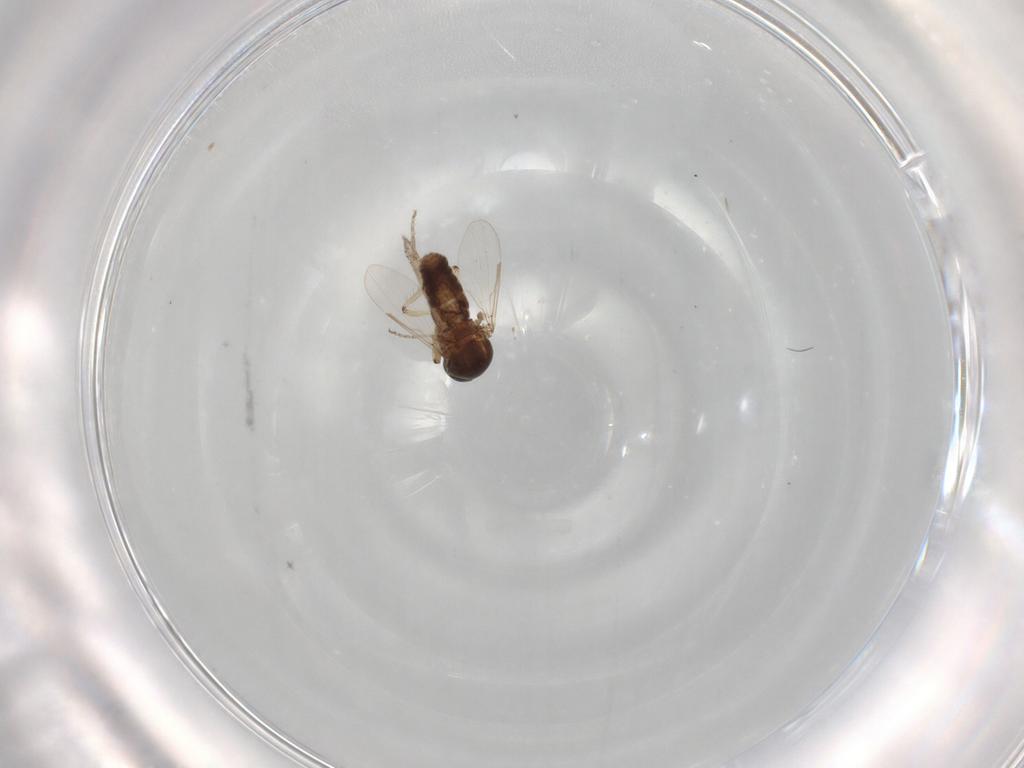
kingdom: Animalia
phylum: Arthropoda
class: Insecta
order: Diptera
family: Ceratopogonidae
